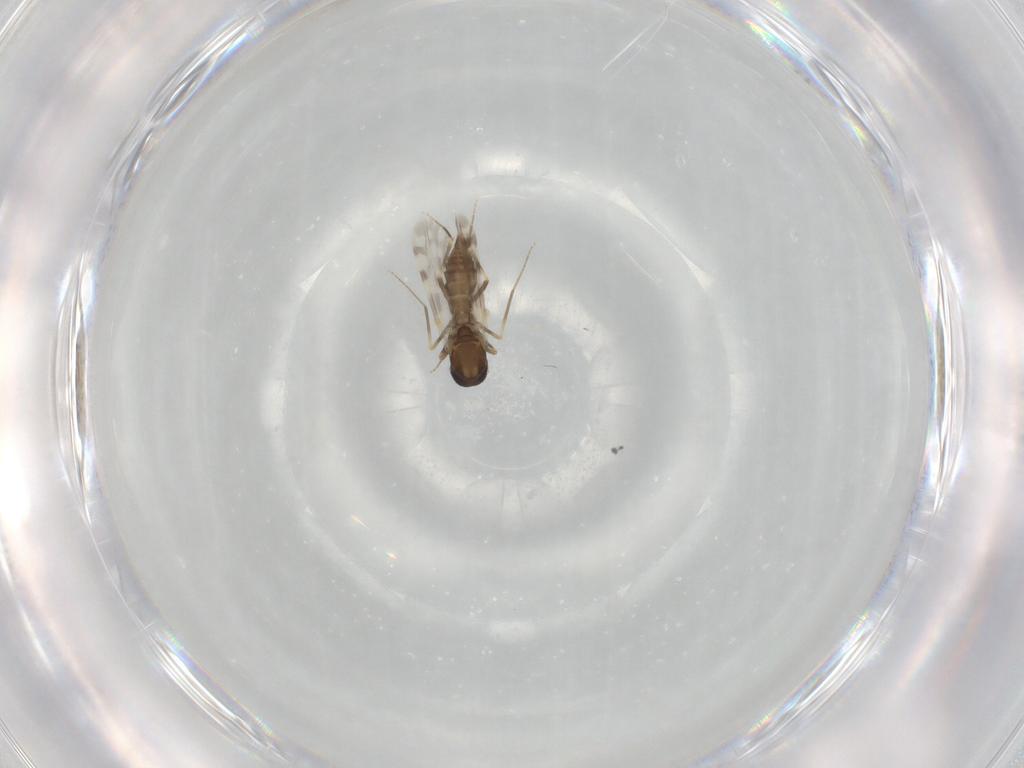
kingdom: Animalia
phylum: Arthropoda
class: Insecta
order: Diptera
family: Ceratopogonidae
